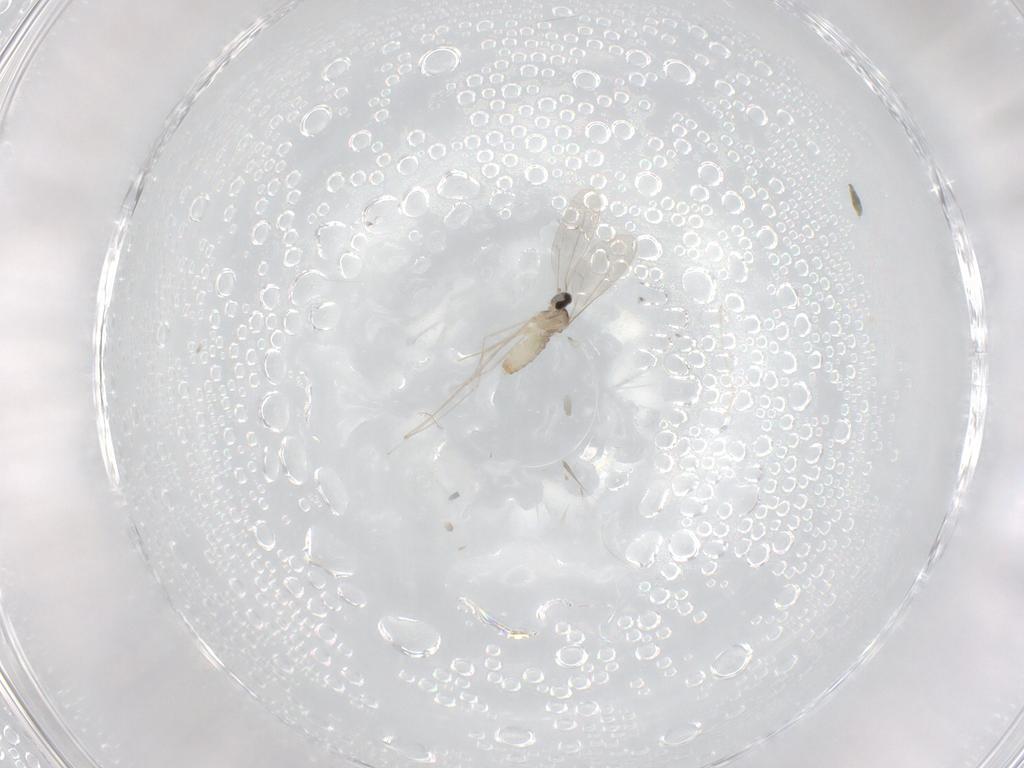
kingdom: Animalia
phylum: Arthropoda
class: Insecta
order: Diptera
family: Cecidomyiidae
